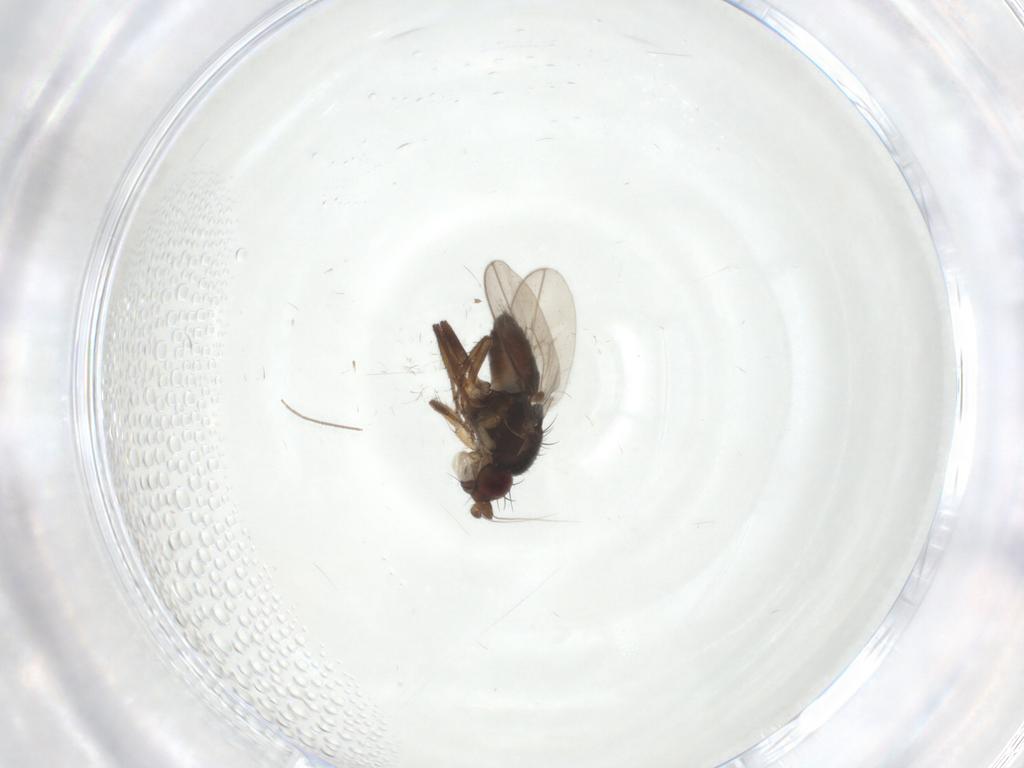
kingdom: Animalia
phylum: Arthropoda
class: Insecta
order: Diptera
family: Sphaeroceridae
